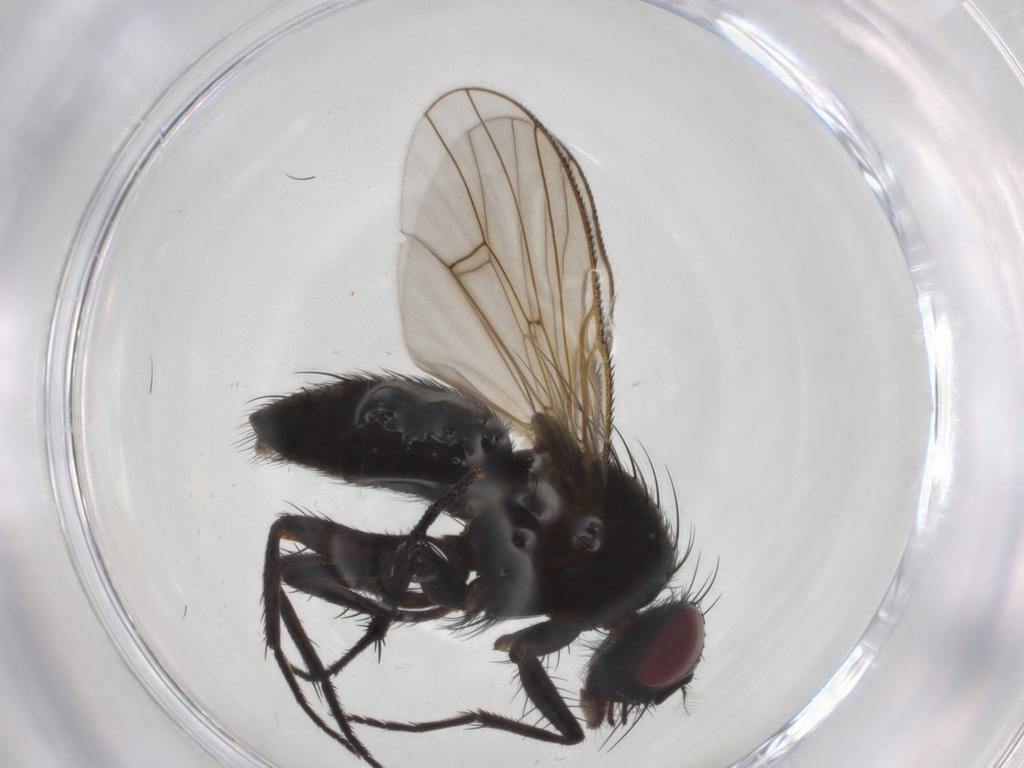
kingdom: Animalia
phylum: Arthropoda
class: Insecta
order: Diptera
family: Muscidae
